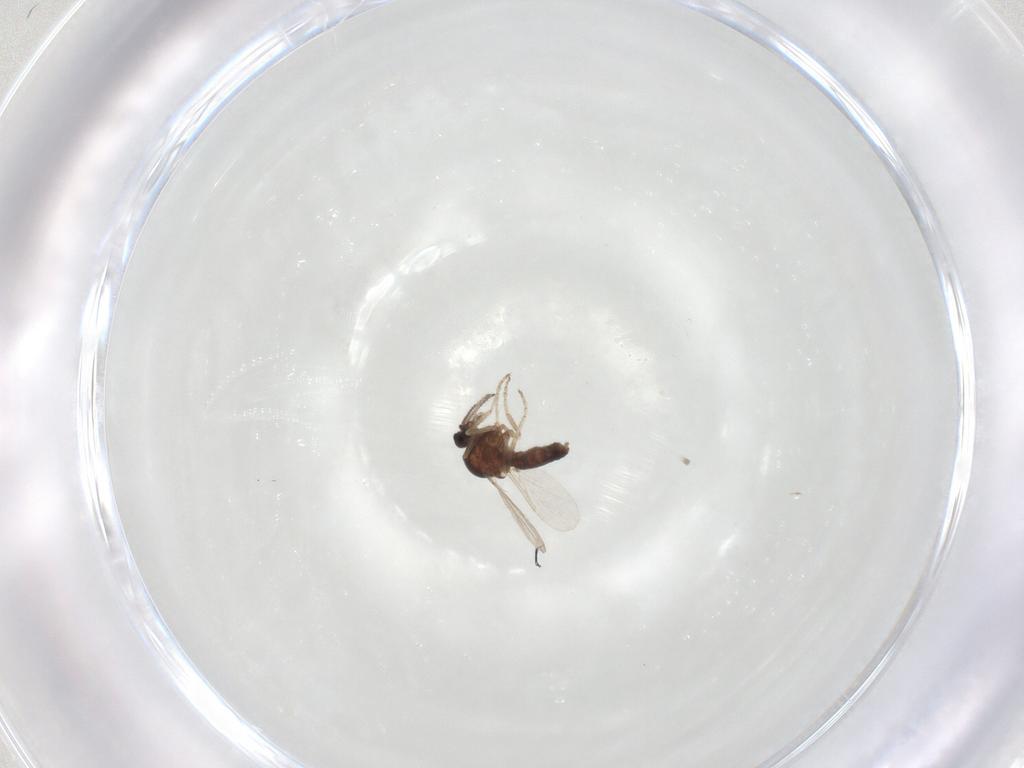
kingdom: Animalia
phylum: Arthropoda
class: Insecta
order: Diptera
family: Ceratopogonidae
